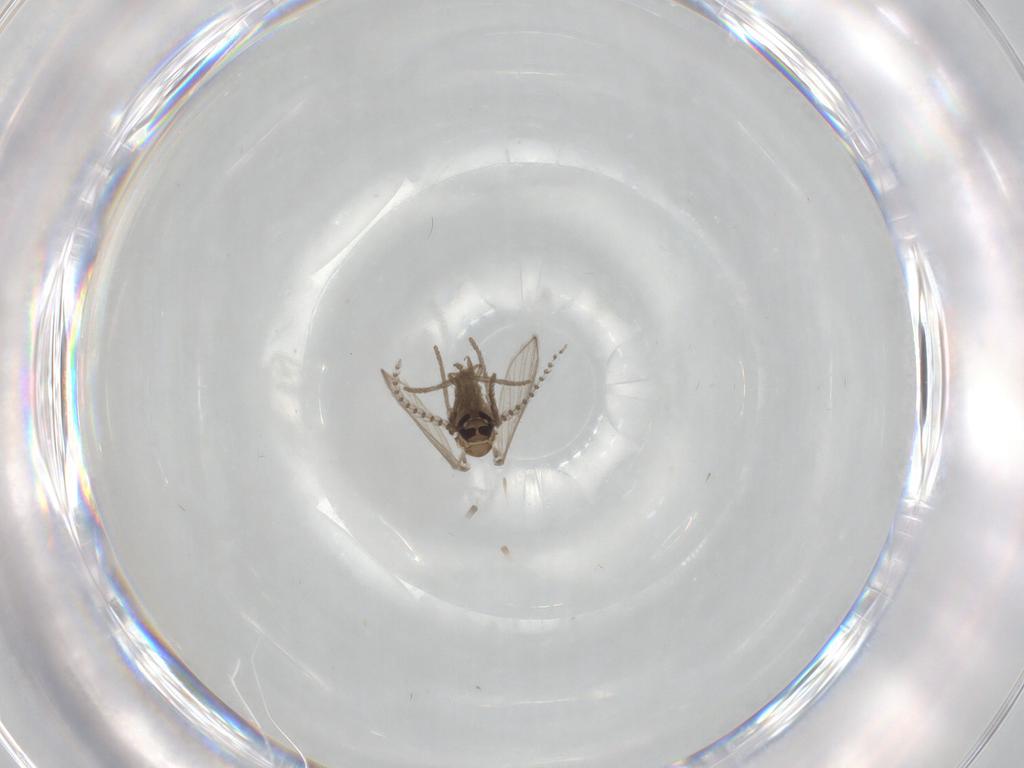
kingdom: Animalia
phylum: Arthropoda
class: Insecta
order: Diptera
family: Psychodidae
